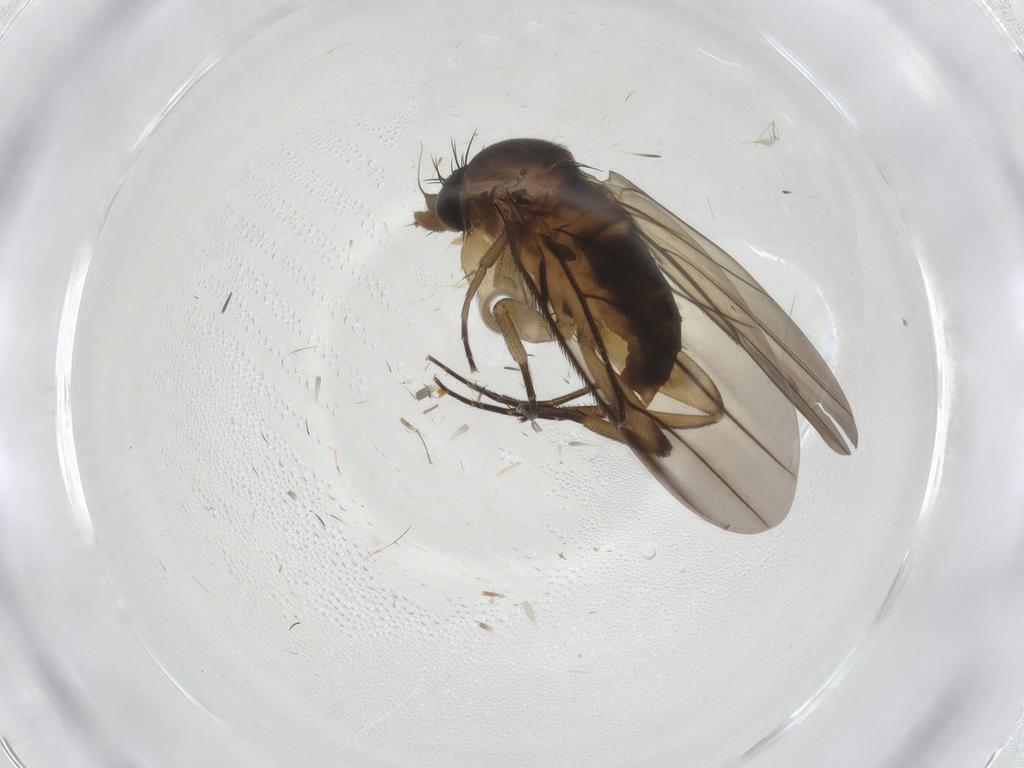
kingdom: Animalia
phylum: Arthropoda
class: Insecta
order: Diptera
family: Phoridae
